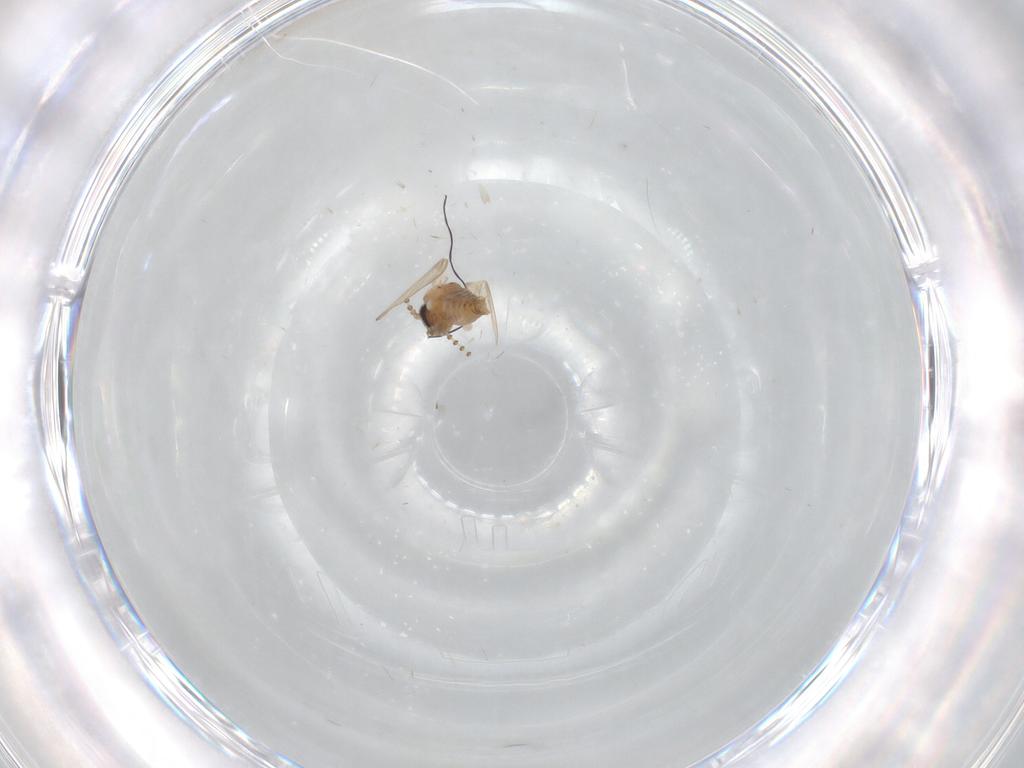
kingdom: Animalia
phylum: Arthropoda
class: Insecta
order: Diptera
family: Psychodidae
